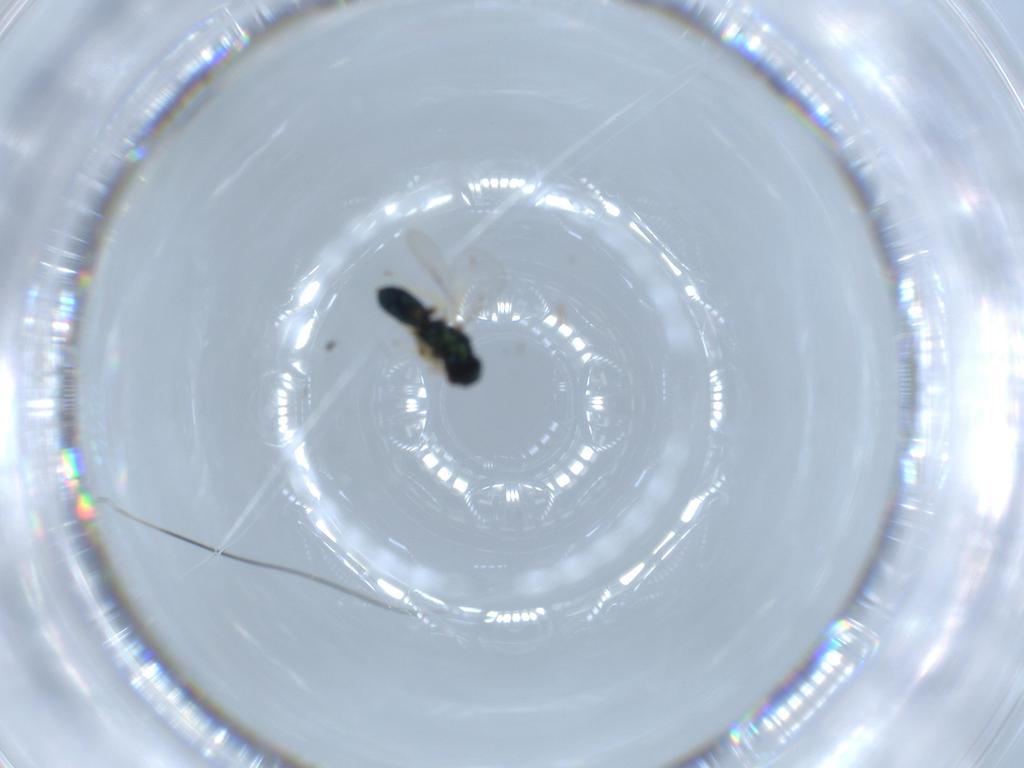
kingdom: Animalia
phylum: Arthropoda
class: Insecta
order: Hymenoptera
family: Eulophidae
